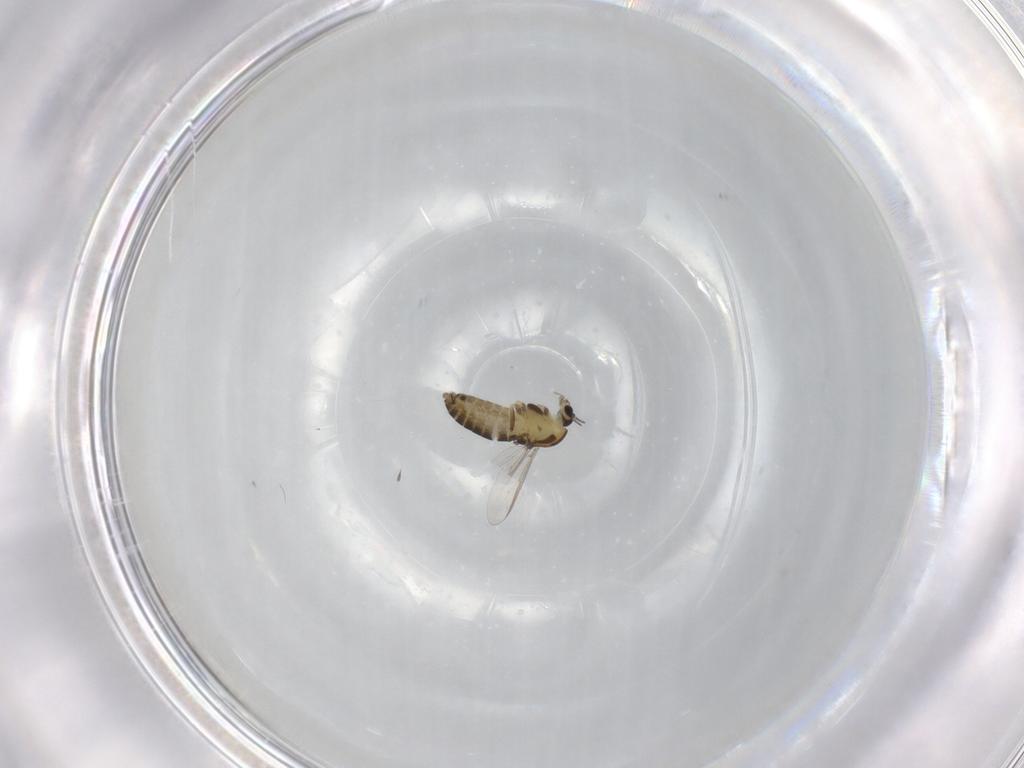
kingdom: Animalia
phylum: Arthropoda
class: Insecta
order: Diptera
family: Chironomidae
